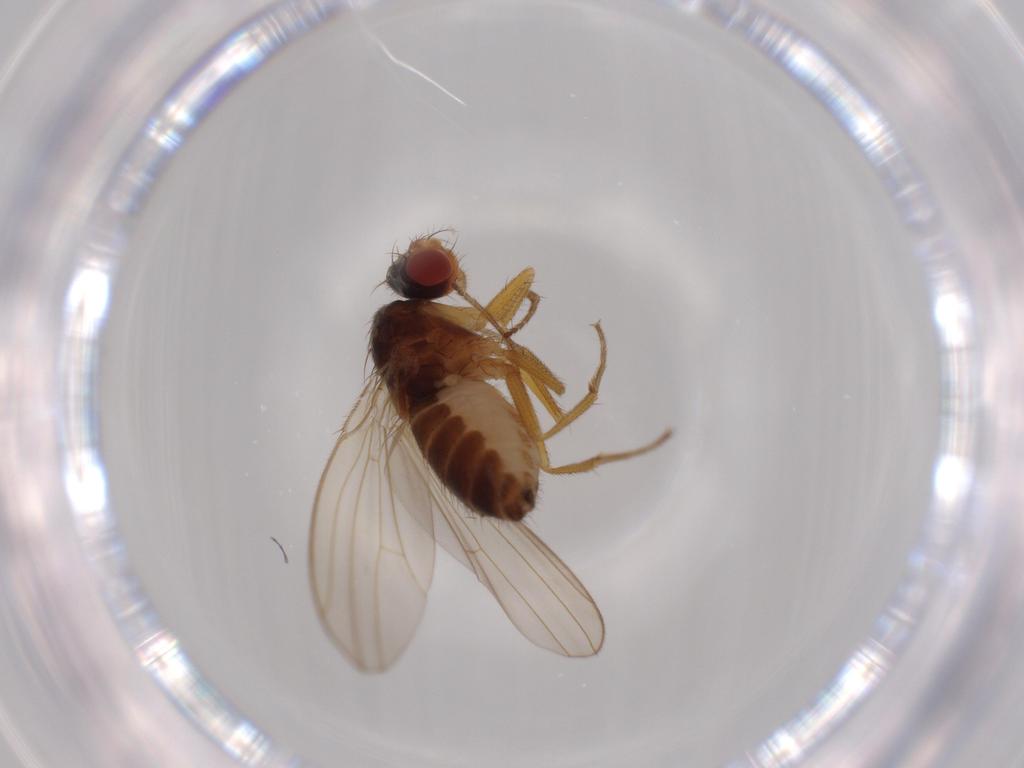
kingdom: Animalia
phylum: Arthropoda
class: Insecta
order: Diptera
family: Drosophilidae
